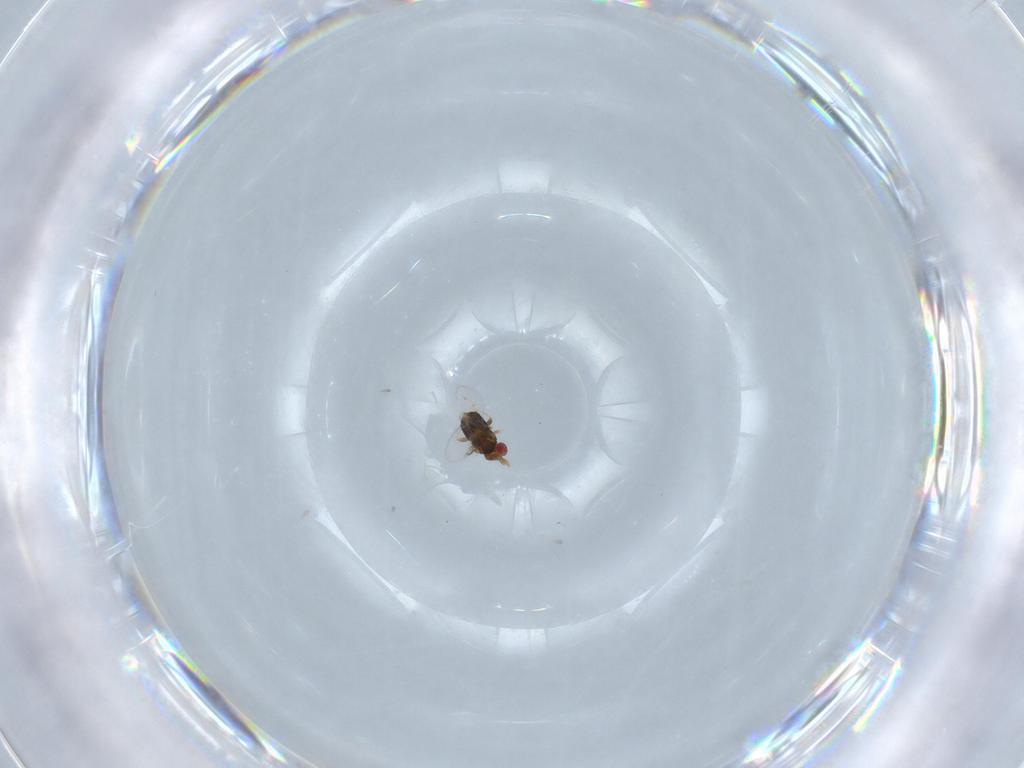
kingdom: Animalia
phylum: Arthropoda
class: Insecta
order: Hymenoptera
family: Trichogrammatidae
